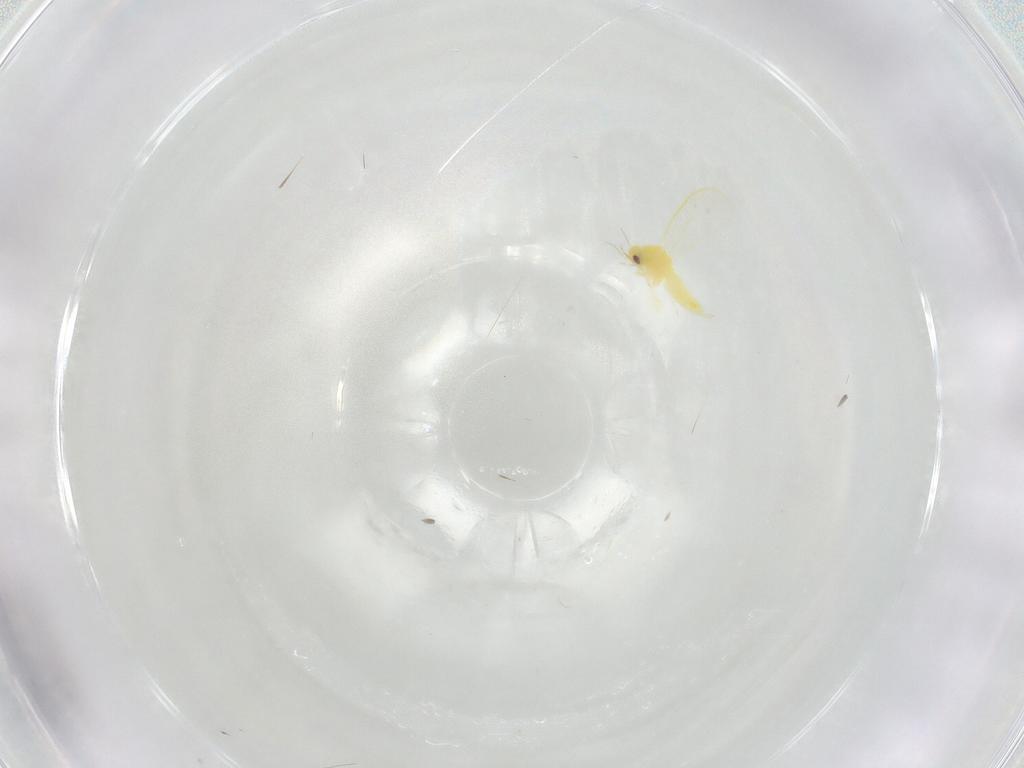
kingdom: Animalia
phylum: Arthropoda
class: Insecta
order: Hemiptera
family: Aleyrodidae
